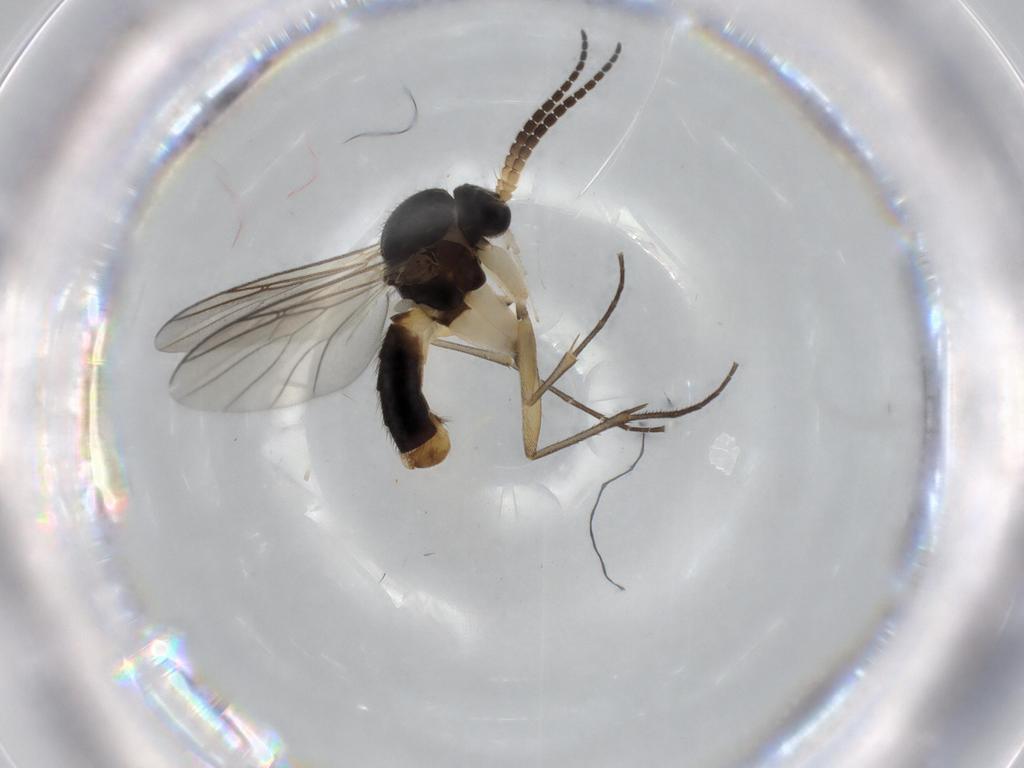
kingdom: Animalia
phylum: Arthropoda
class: Insecta
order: Diptera
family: Mycetophilidae
